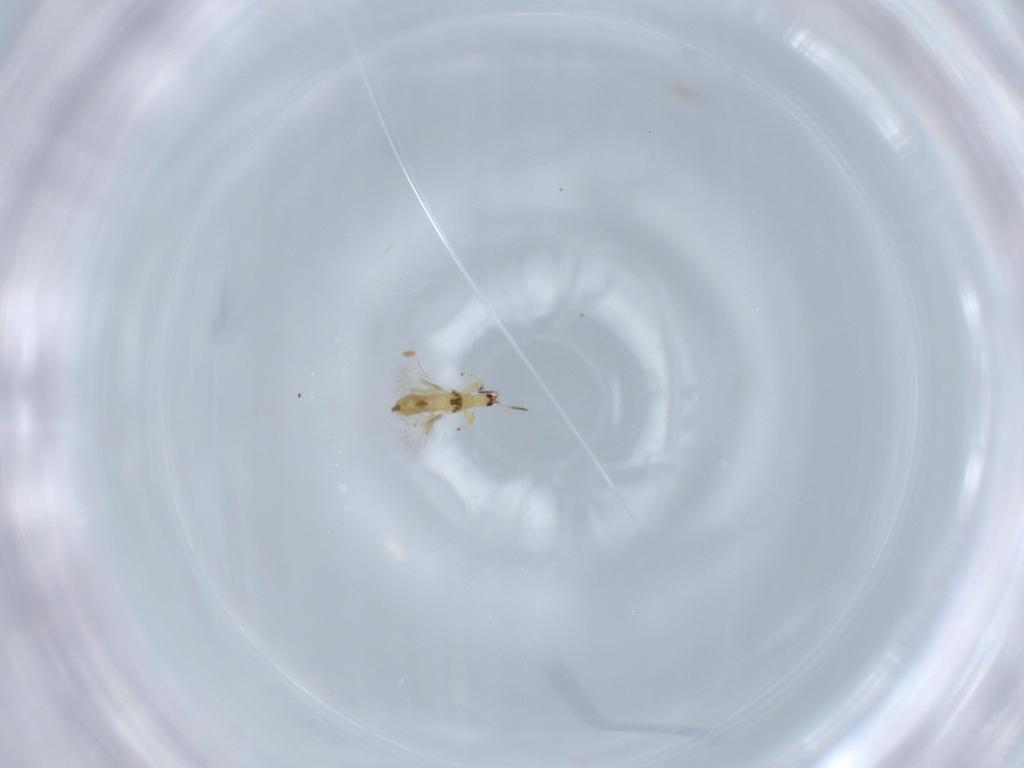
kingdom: Animalia
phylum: Arthropoda
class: Insecta
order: Thysanoptera
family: Phlaeothripidae
